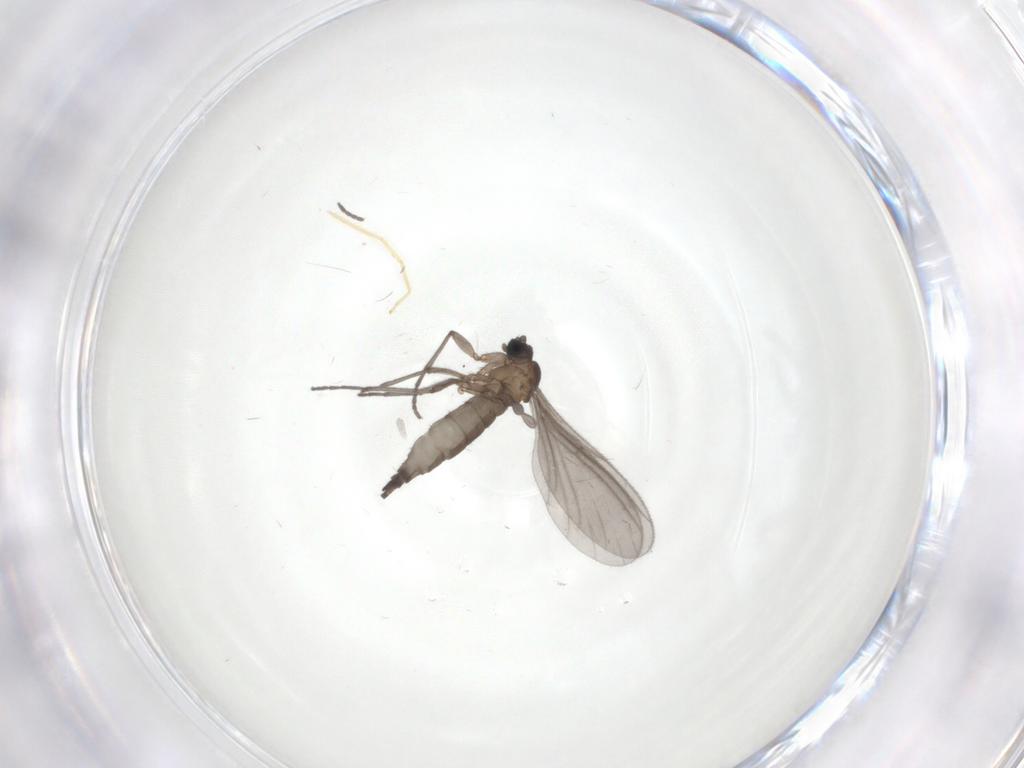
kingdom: Animalia
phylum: Arthropoda
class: Insecta
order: Diptera
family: Sciaridae
